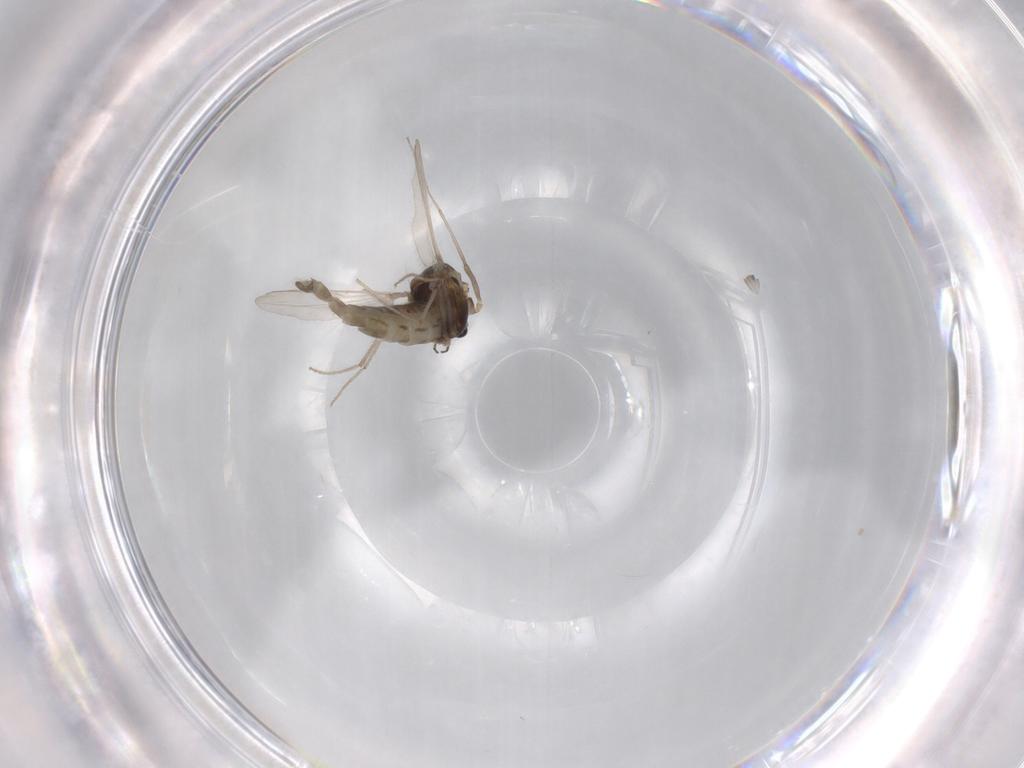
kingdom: Animalia
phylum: Arthropoda
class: Insecta
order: Diptera
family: Chironomidae
